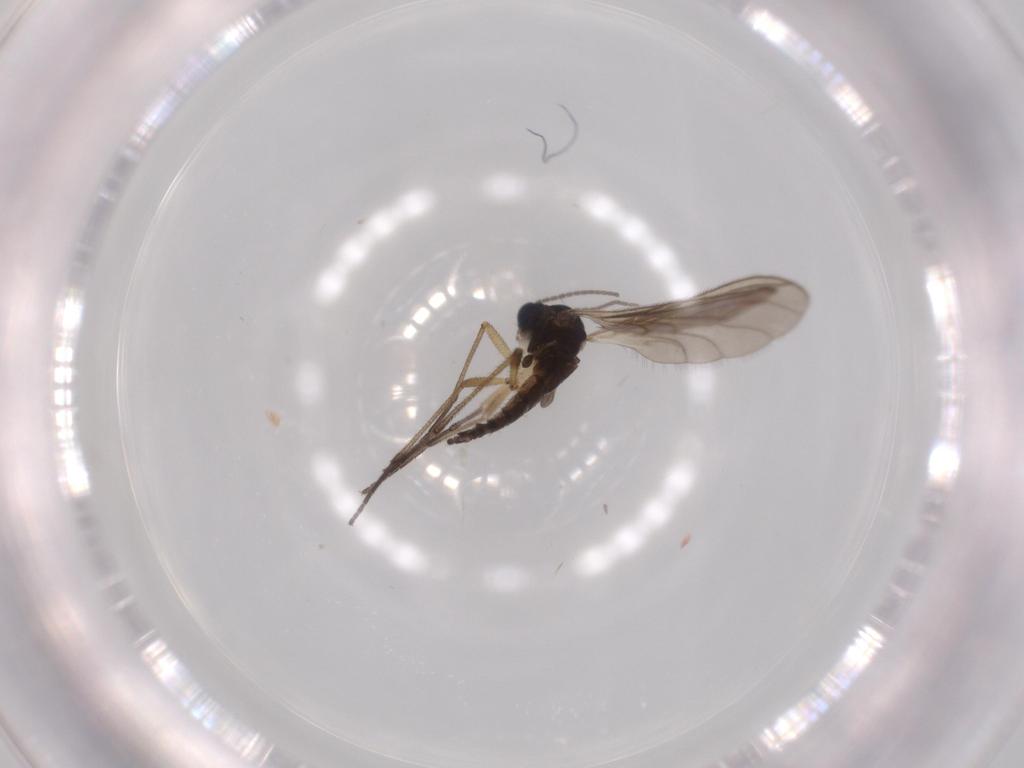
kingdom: Animalia
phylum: Arthropoda
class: Insecta
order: Diptera
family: Sciaridae
